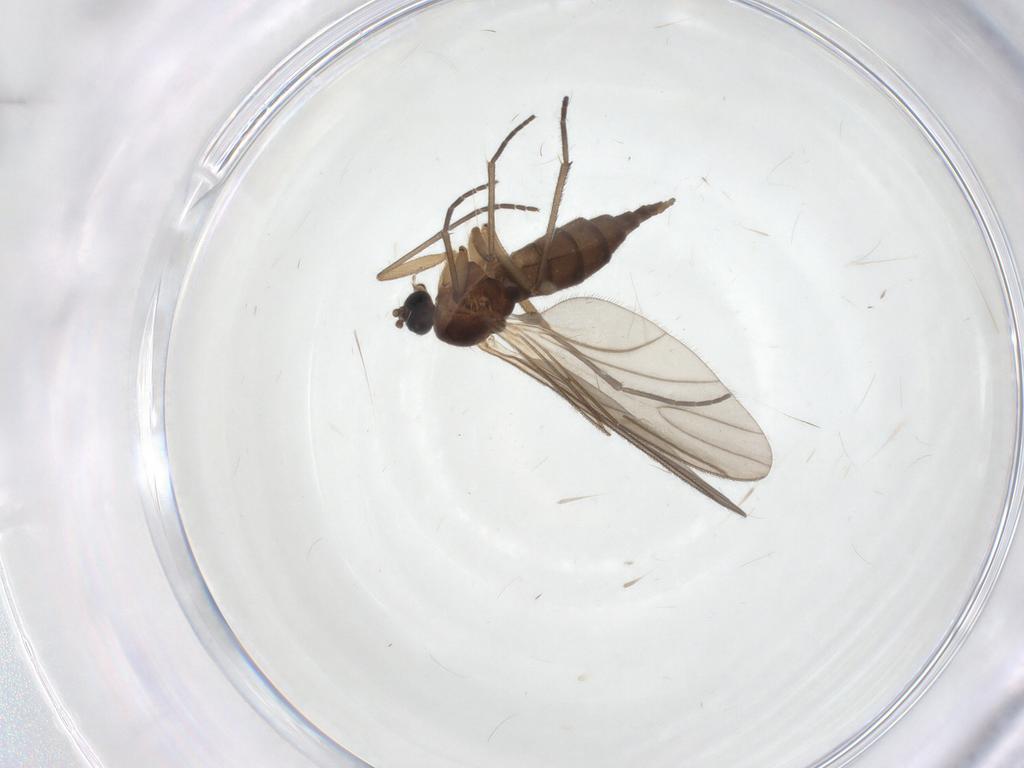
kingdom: Animalia
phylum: Arthropoda
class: Insecta
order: Diptera
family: Sciaridae
